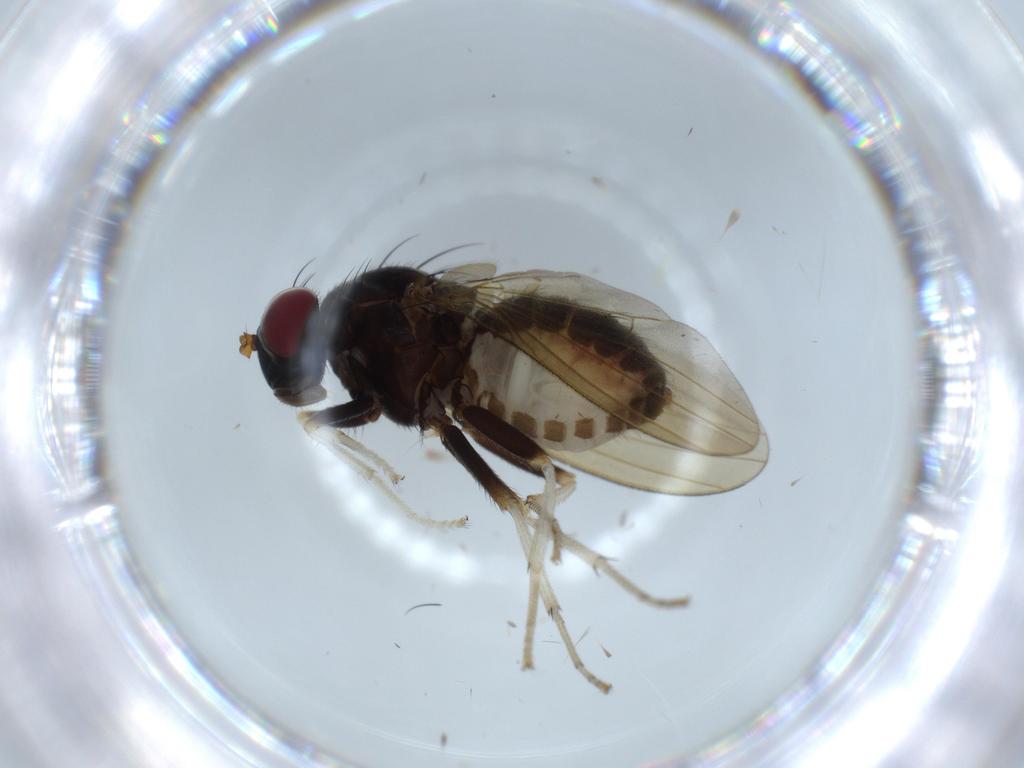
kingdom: Animalia
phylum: Arthropoda
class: Insecta
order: Diptera
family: Lauxaniidae
